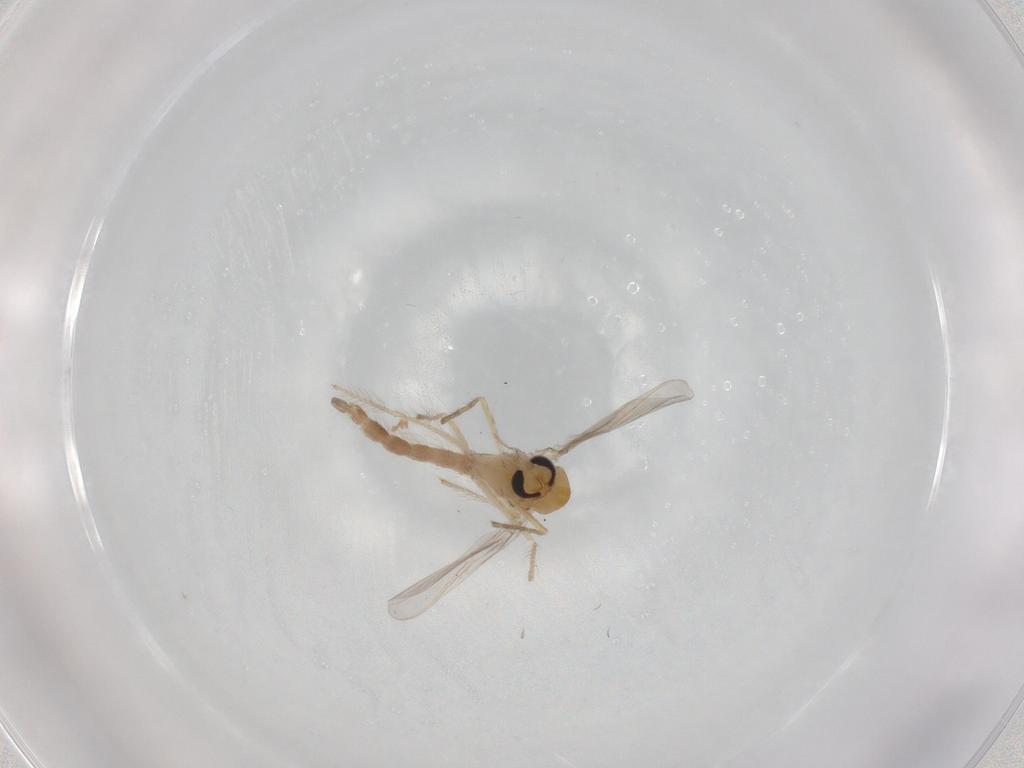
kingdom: Animalia
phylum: Arthropoda
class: Insecta
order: Diptera
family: Chironomidae
